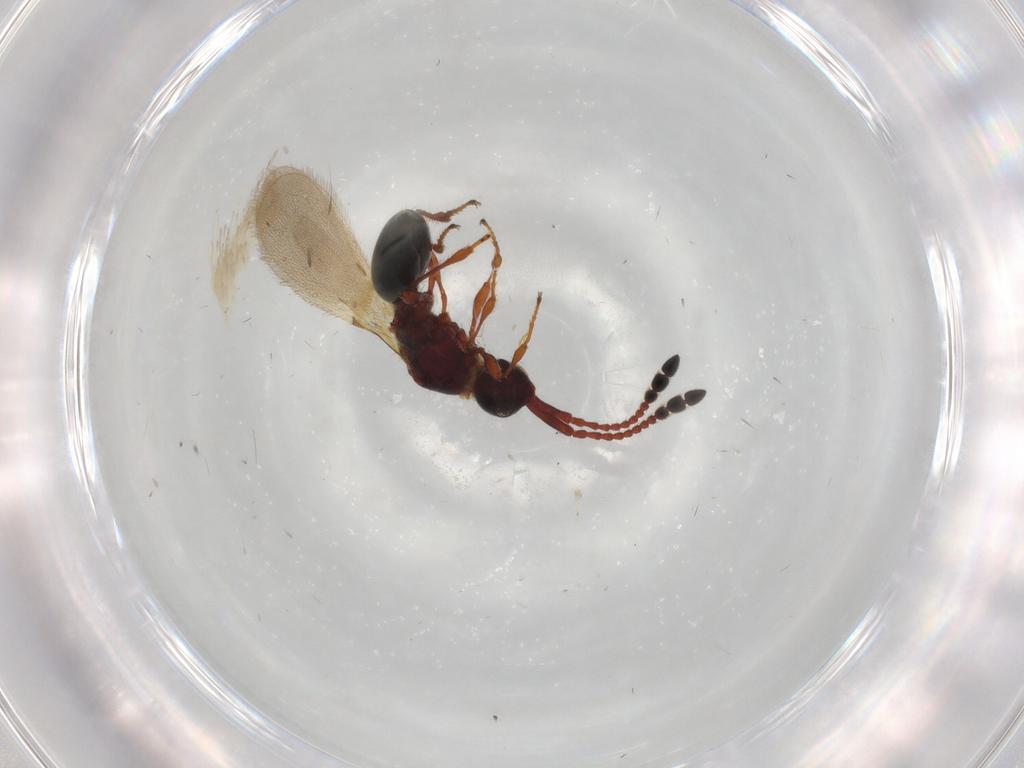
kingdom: Animalia
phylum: Arthropoda
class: Insecta
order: Hymenoptera
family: Diapriidae
